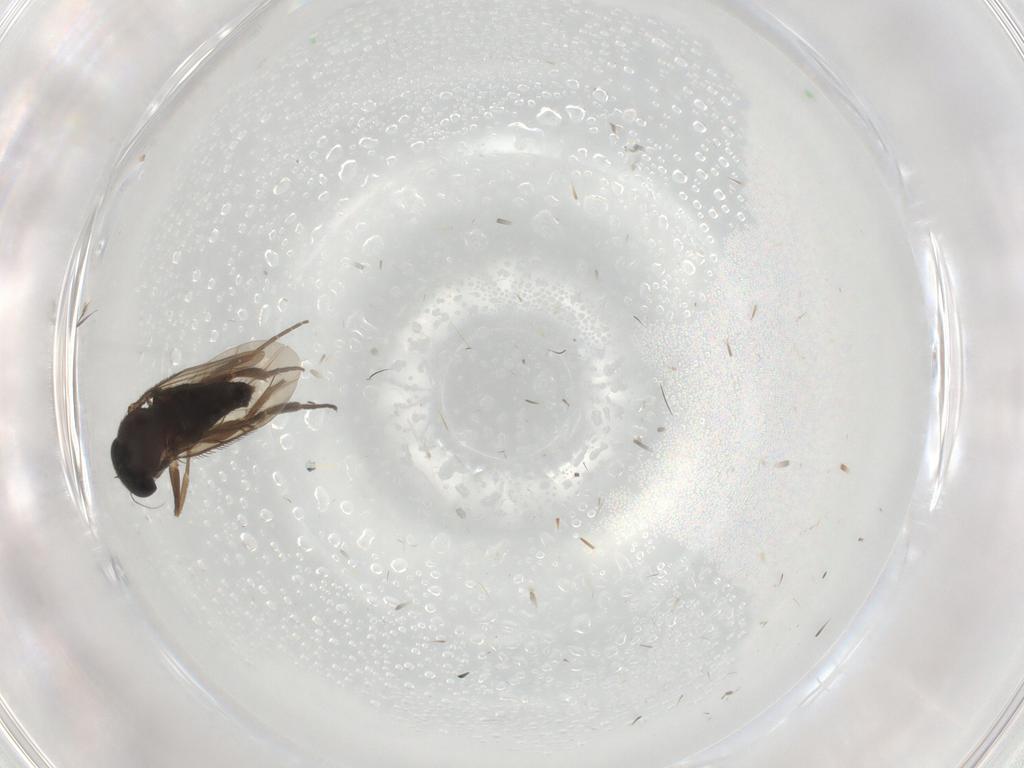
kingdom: Animalia
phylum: Arthropoda
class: Insecta
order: Diptera
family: Phoridae
